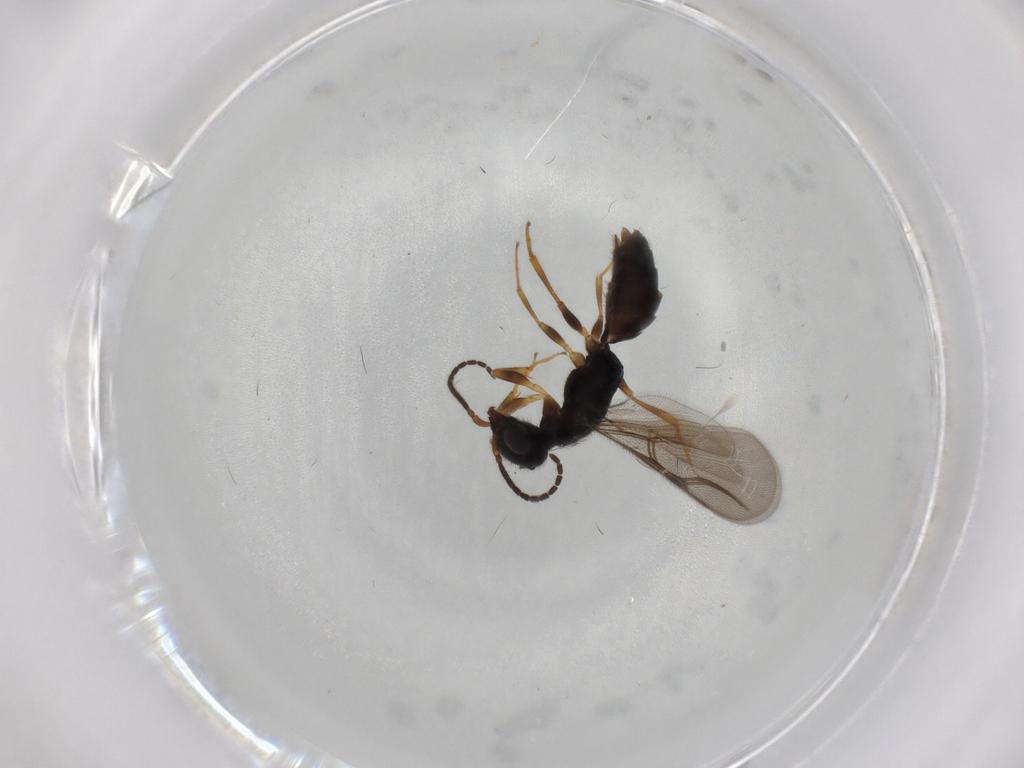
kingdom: Animalia
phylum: Arthropoda
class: Insecta
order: Hymenoptera
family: Bethylidae
